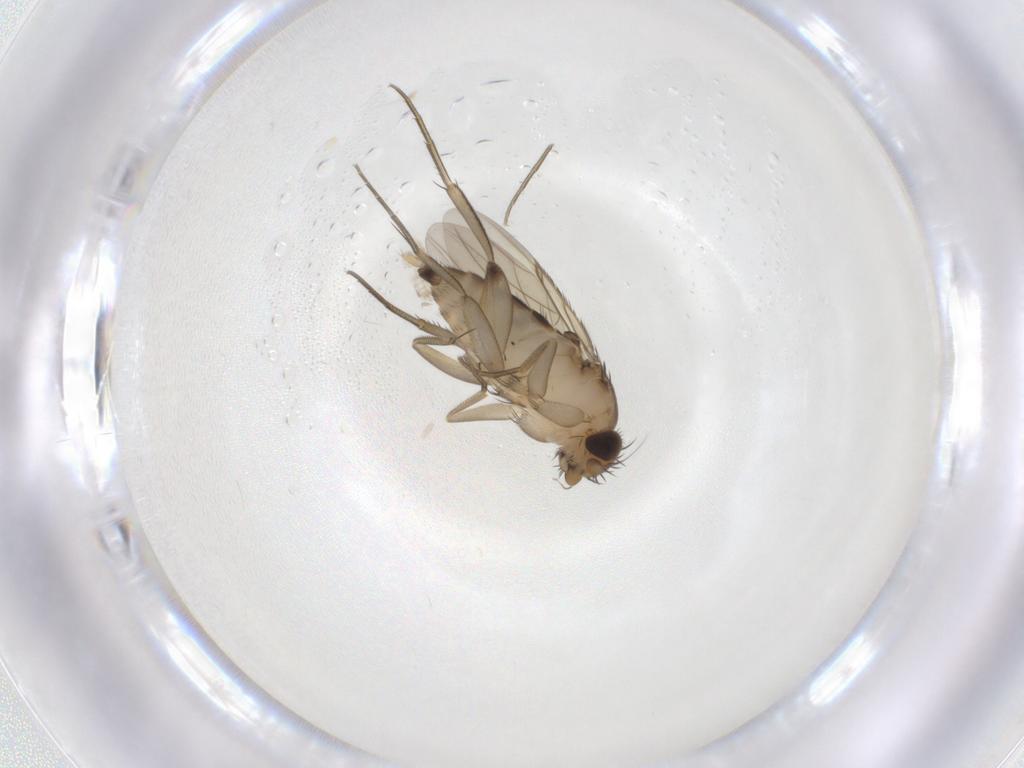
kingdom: Animalia
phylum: Arthropoda
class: Insecta
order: Diptera
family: Phoridae
